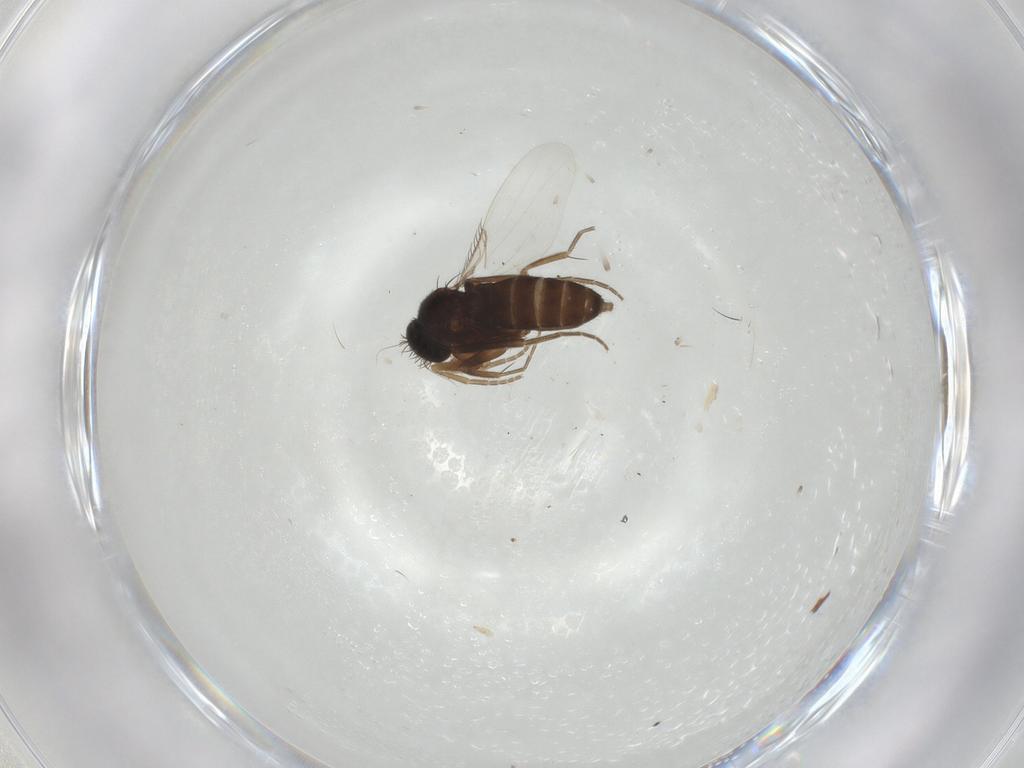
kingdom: Animalia
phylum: Arthropoda
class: Insecta
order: Diptera
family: Phoridae
